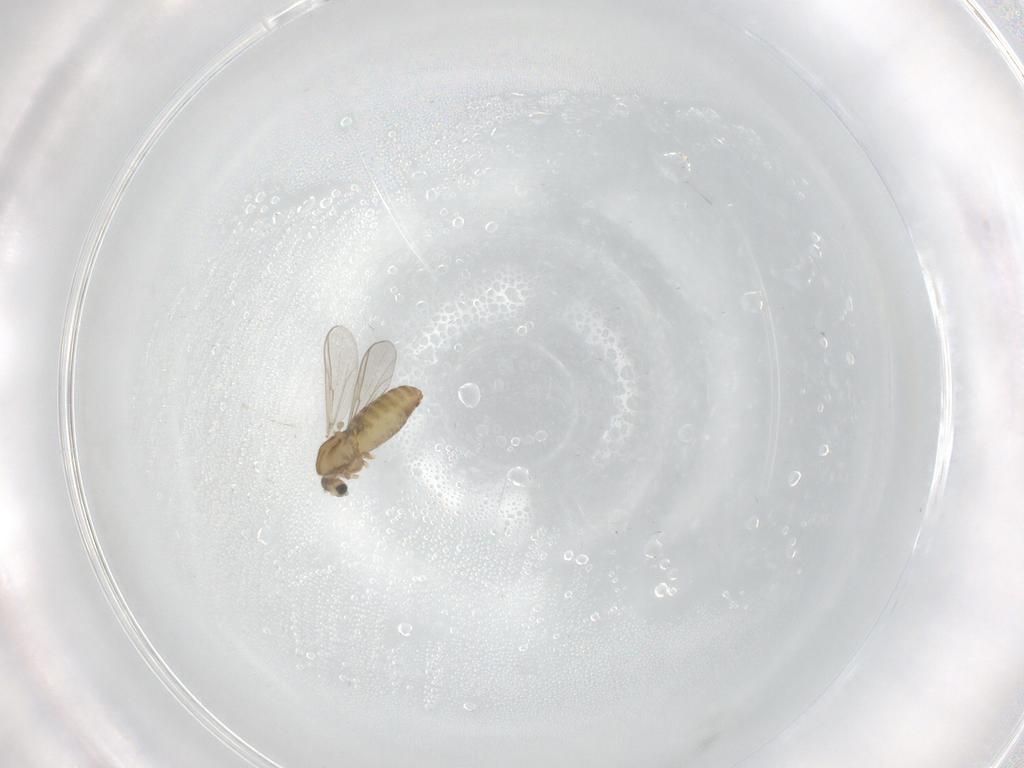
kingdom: Animalia
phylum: Arthropoda
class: Insecta
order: Diptera
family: Chironomidae
